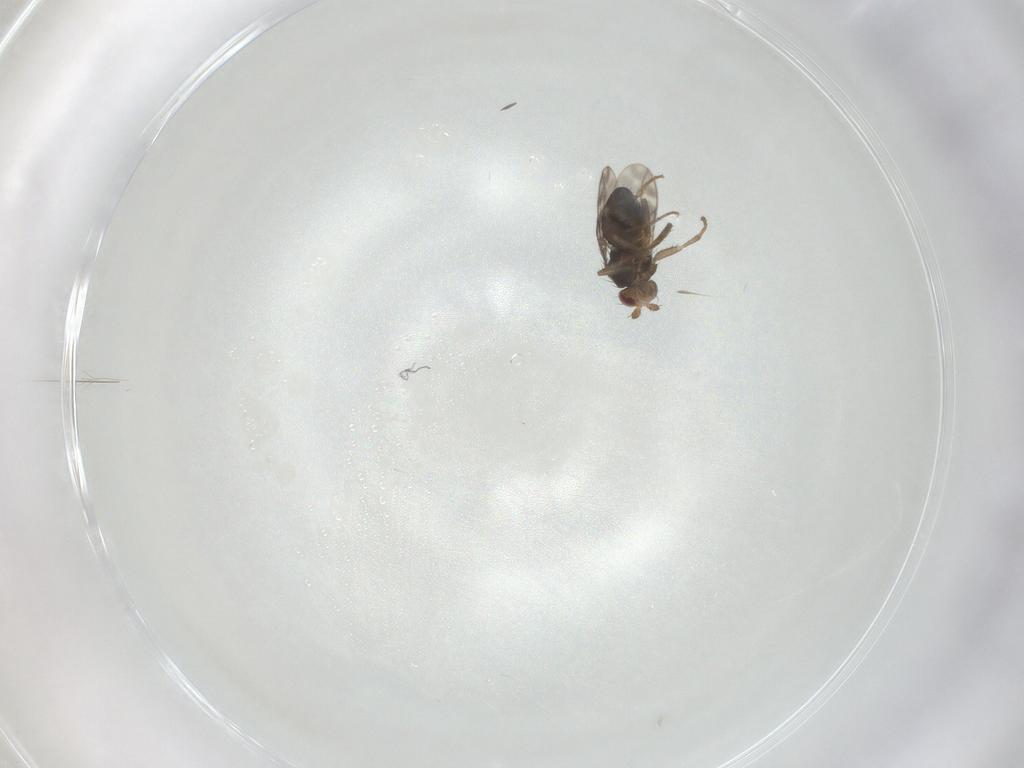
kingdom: Animalia
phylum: Arthropoda
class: Insecta
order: Diptera
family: Sphaeroceridae
